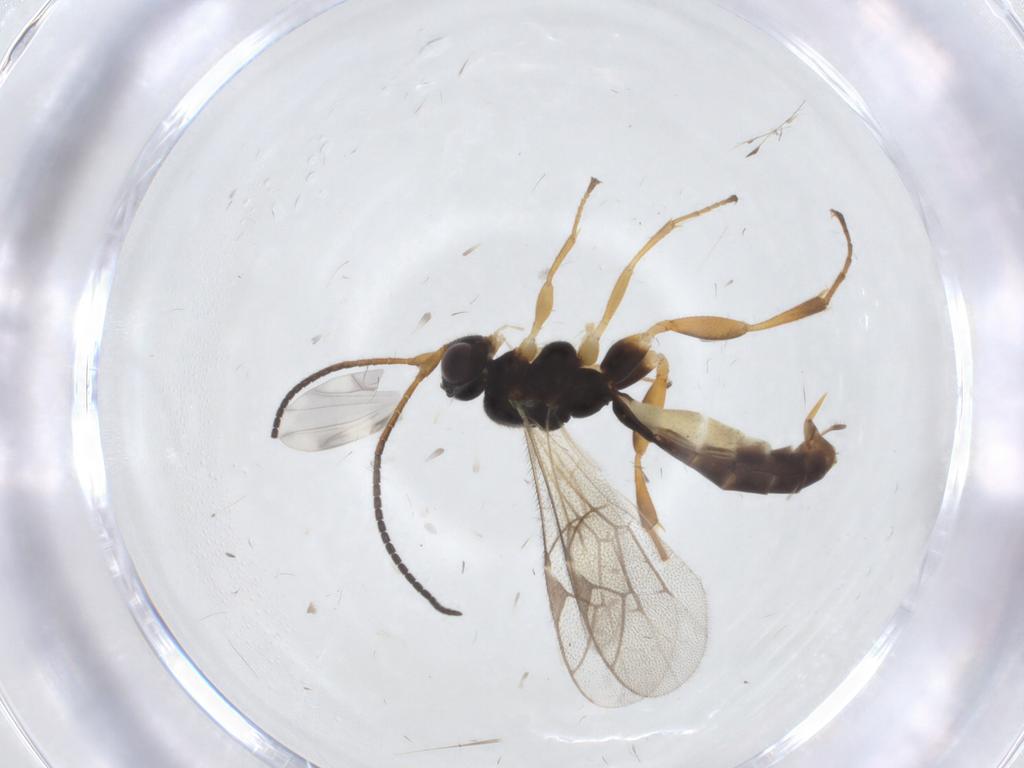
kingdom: Animalia
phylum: Arthropoda
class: Insecta
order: Hymenoptera
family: Ichneumonidae
